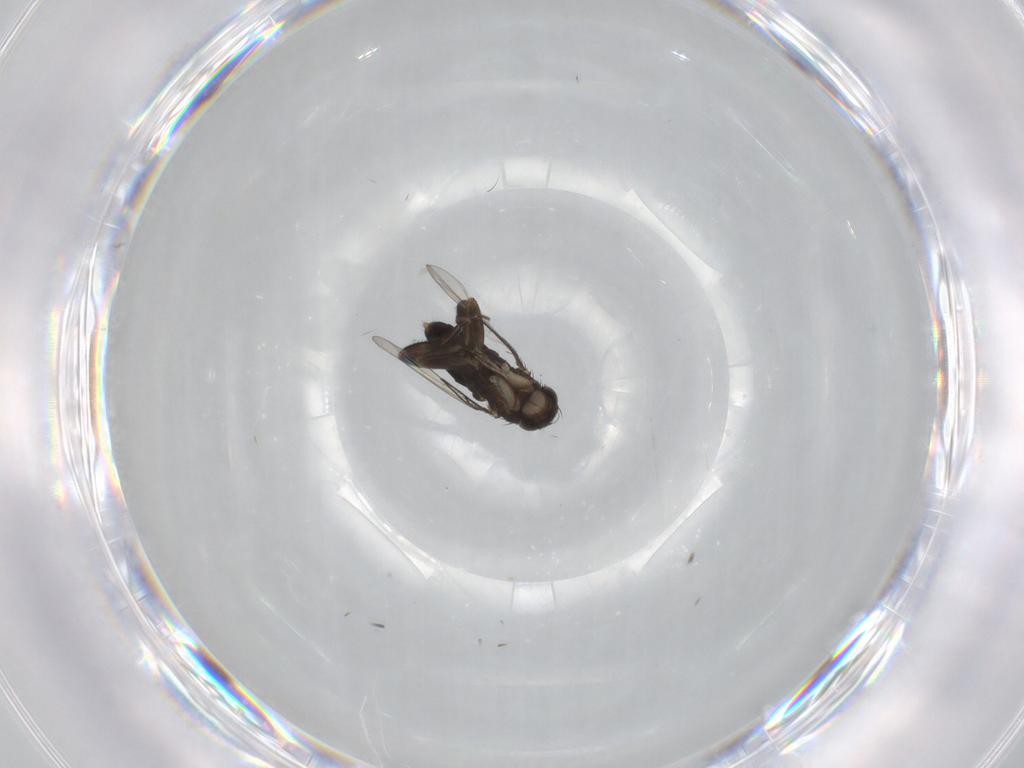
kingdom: Animalia
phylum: Arthropoda
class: Insecta
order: Diptera
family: Phoridae
